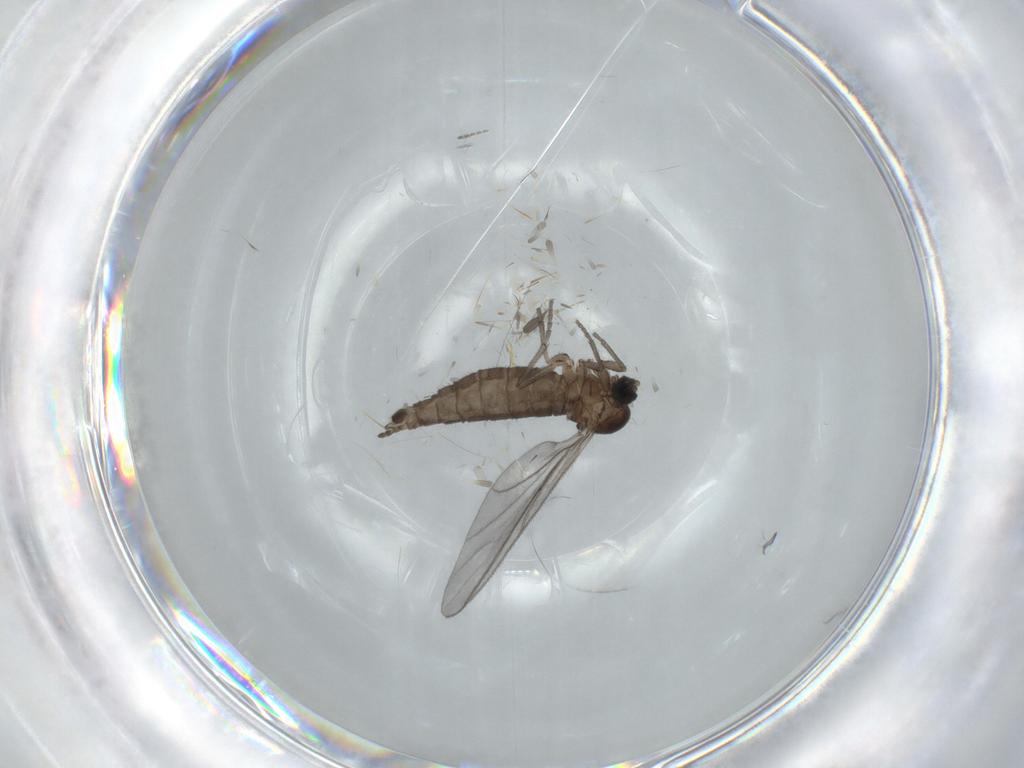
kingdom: Animalia
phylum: Arthropoda
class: Insecta
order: Diptera
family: Sciaridae
